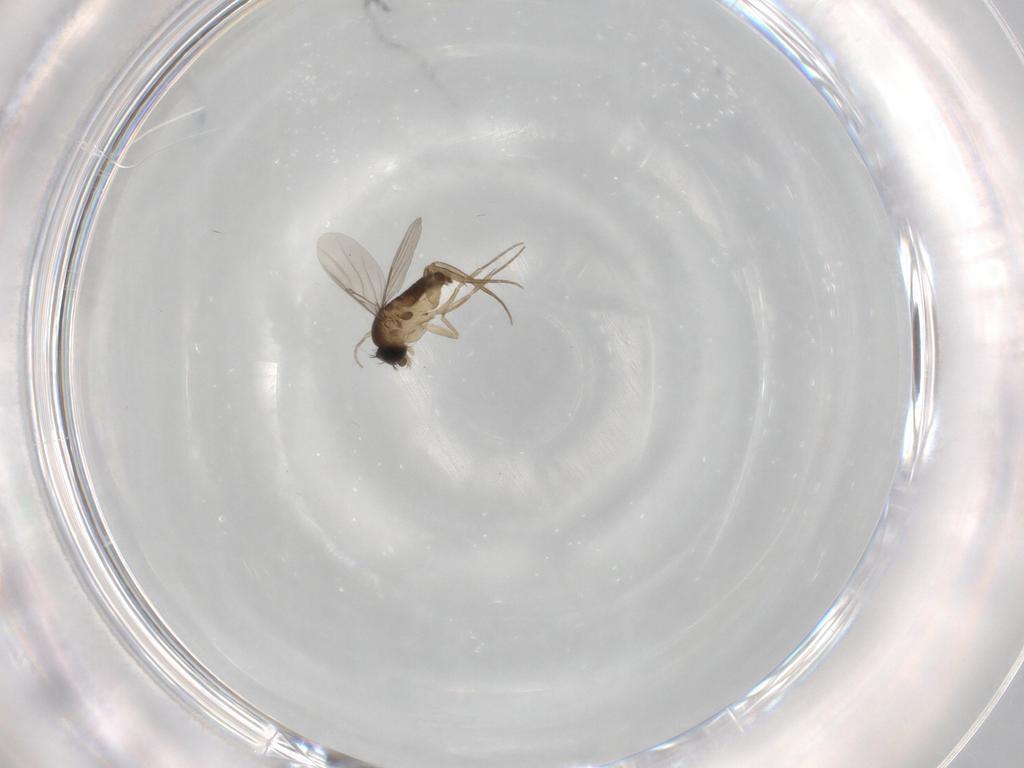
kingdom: Animalia
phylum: Arthropoda
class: Insecta
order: Diptera
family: Phoridae
